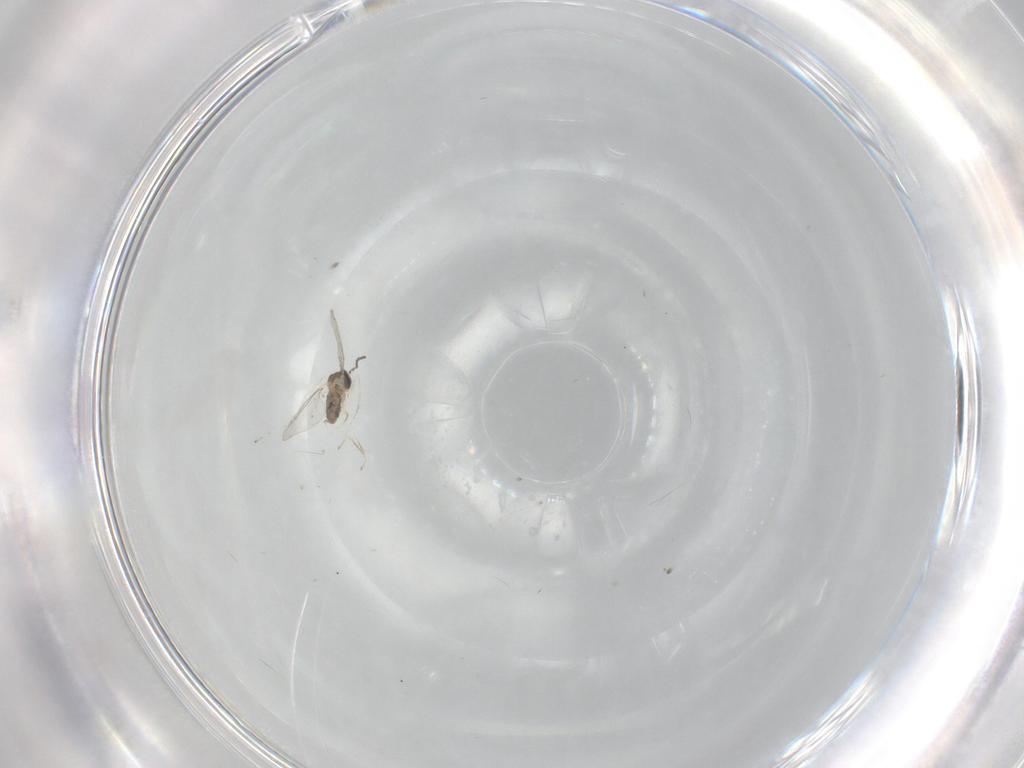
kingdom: Animalia
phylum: Arthropoda
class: Insecta
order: Diptera
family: Cecidomyiidae
